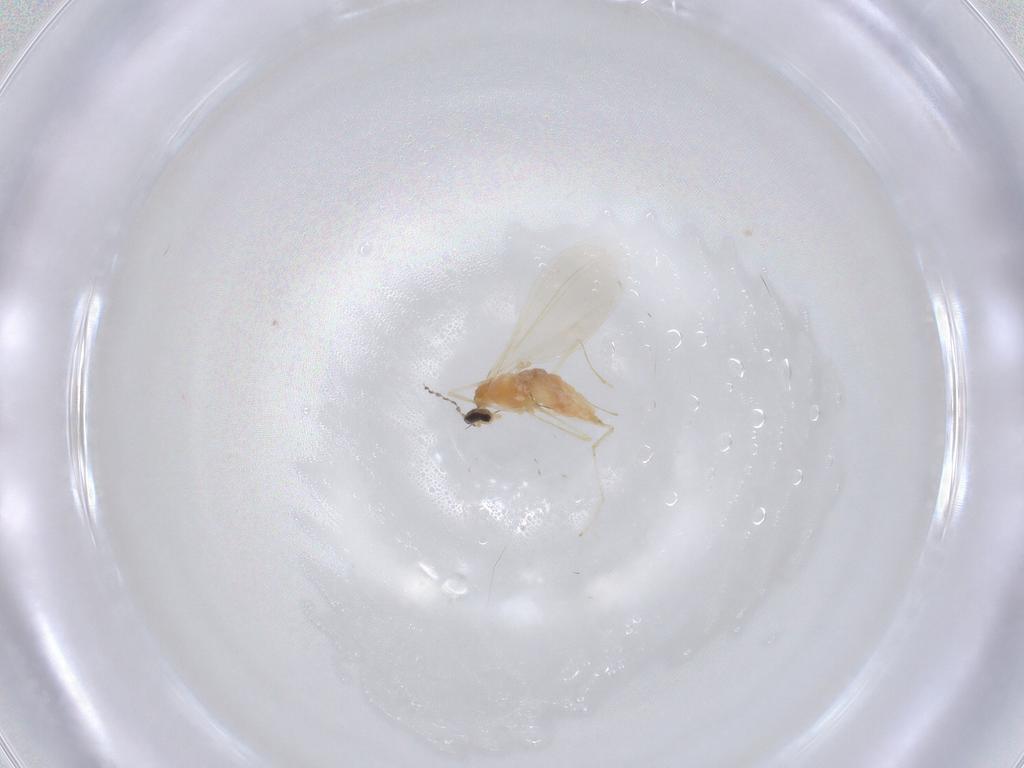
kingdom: Animalia
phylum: Arthropoda
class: Insecta
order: Diptera
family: Cecidomyiidae
